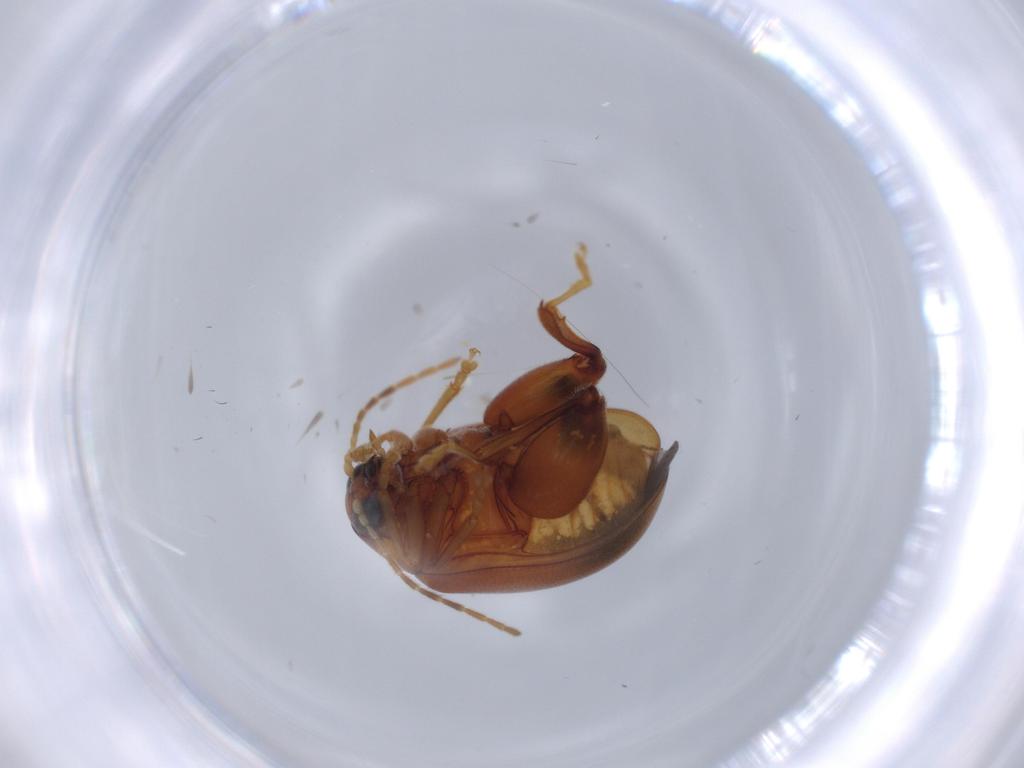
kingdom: Animalia
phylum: Arthropoda
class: Insecta
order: Coleoptera
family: Chrysomelidae
